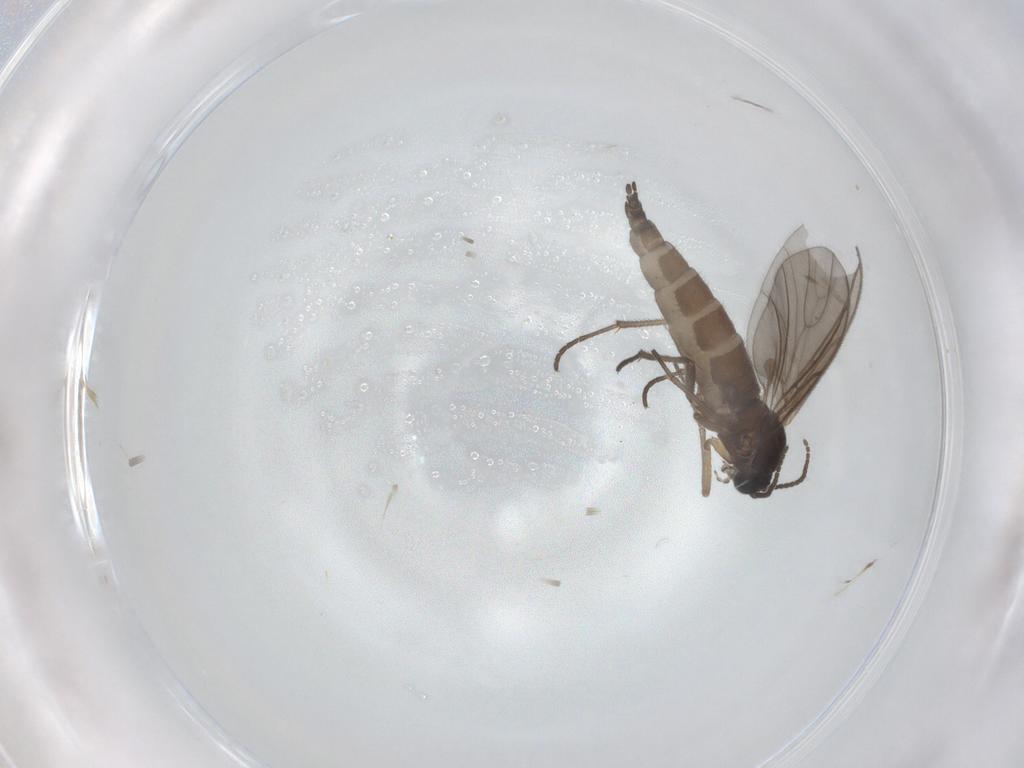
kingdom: Animalia
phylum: Arthropoda
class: Insecta
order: Diptera
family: Sciaridae
